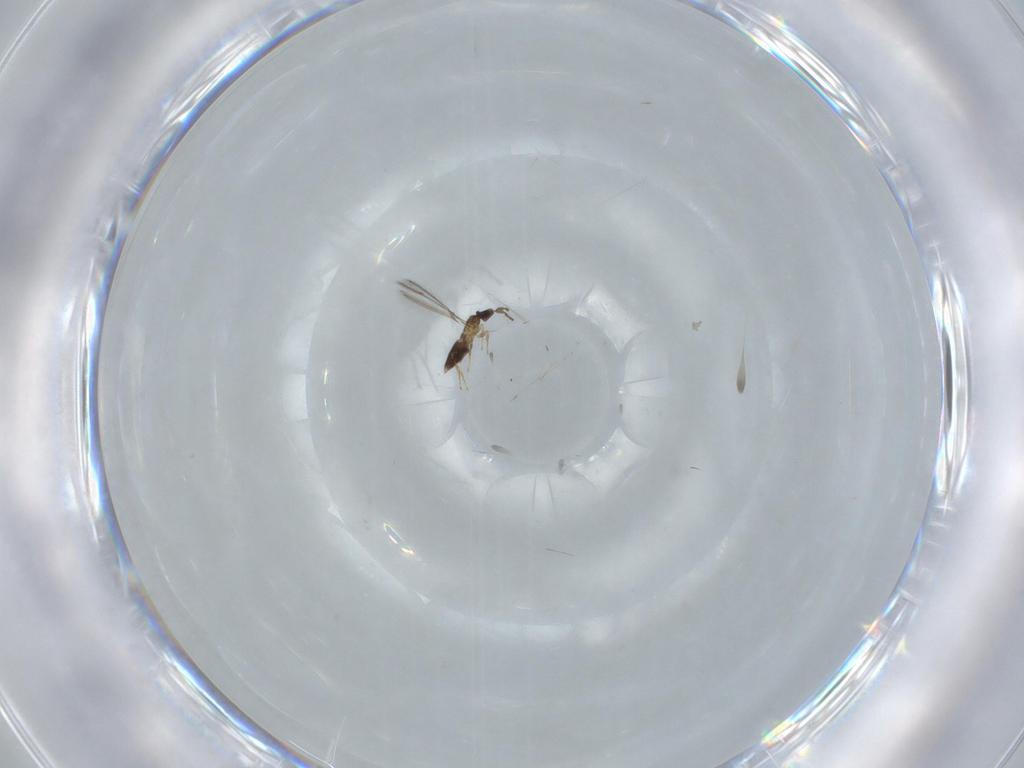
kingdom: Animalia
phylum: Arthropoda
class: Insecta
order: Hymenoptera
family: Mymaridae
